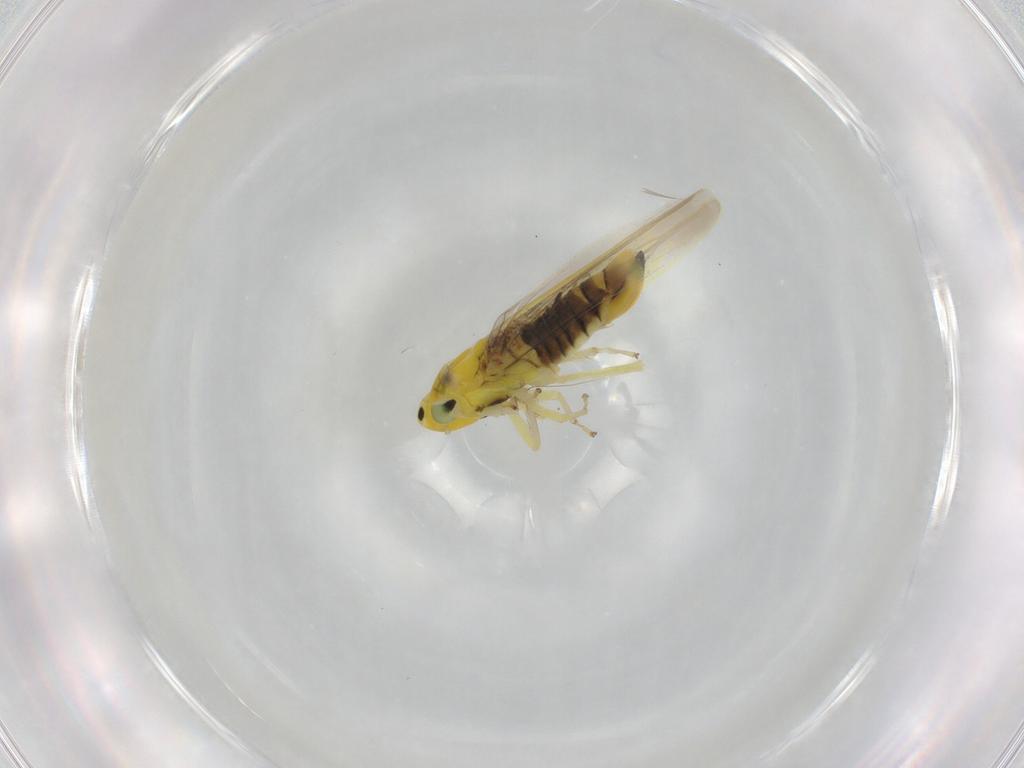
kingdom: Animalia
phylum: Arthropoda
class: Insecta
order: Hemiptera
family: Cicadellidae
